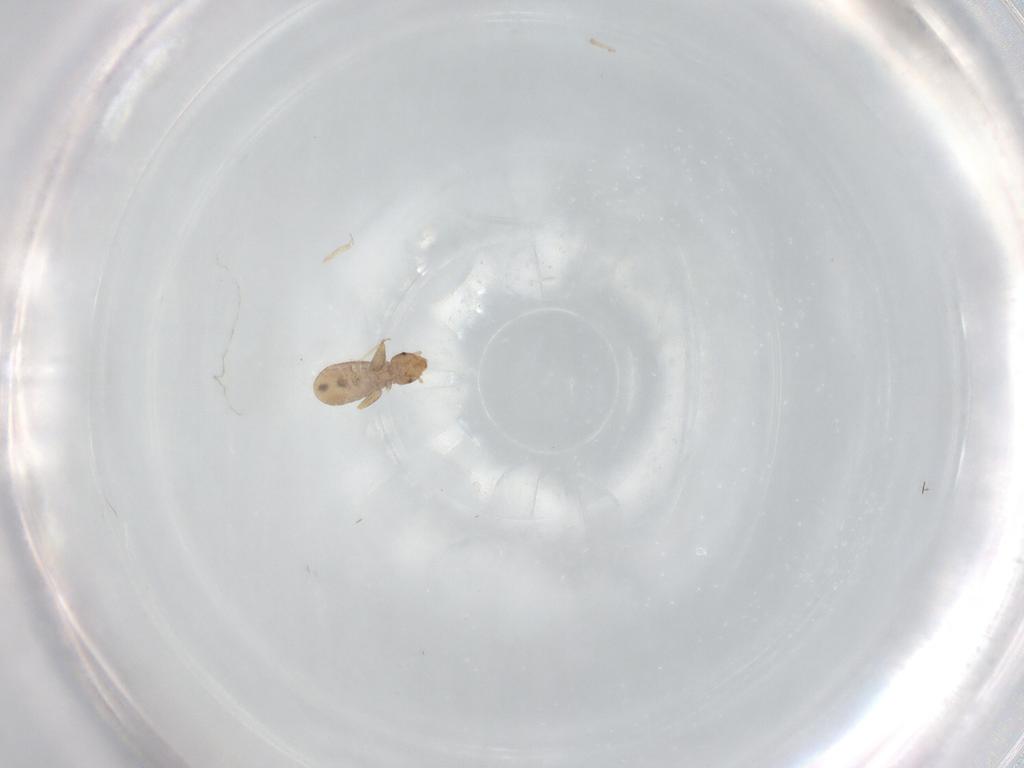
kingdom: Animalia
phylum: Arthropoda
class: Insecta
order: Psocodea
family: Liposcelididae
